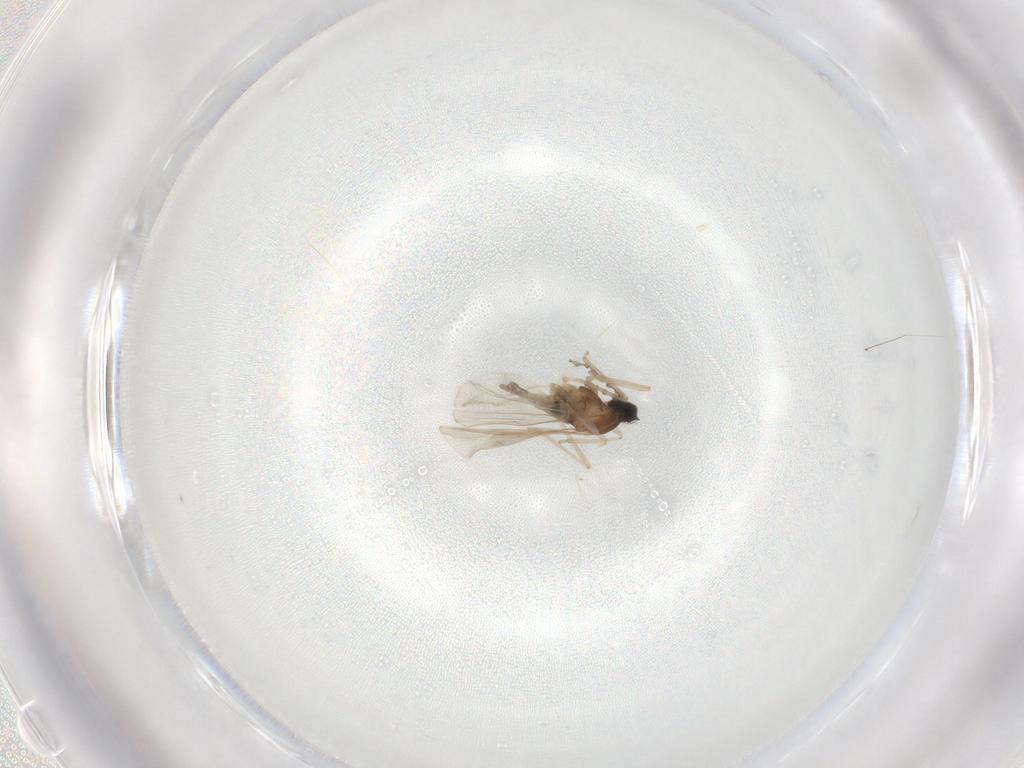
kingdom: Animalia
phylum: Arthropoda
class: Insecta
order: Diptera
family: Cecidomyiidae
